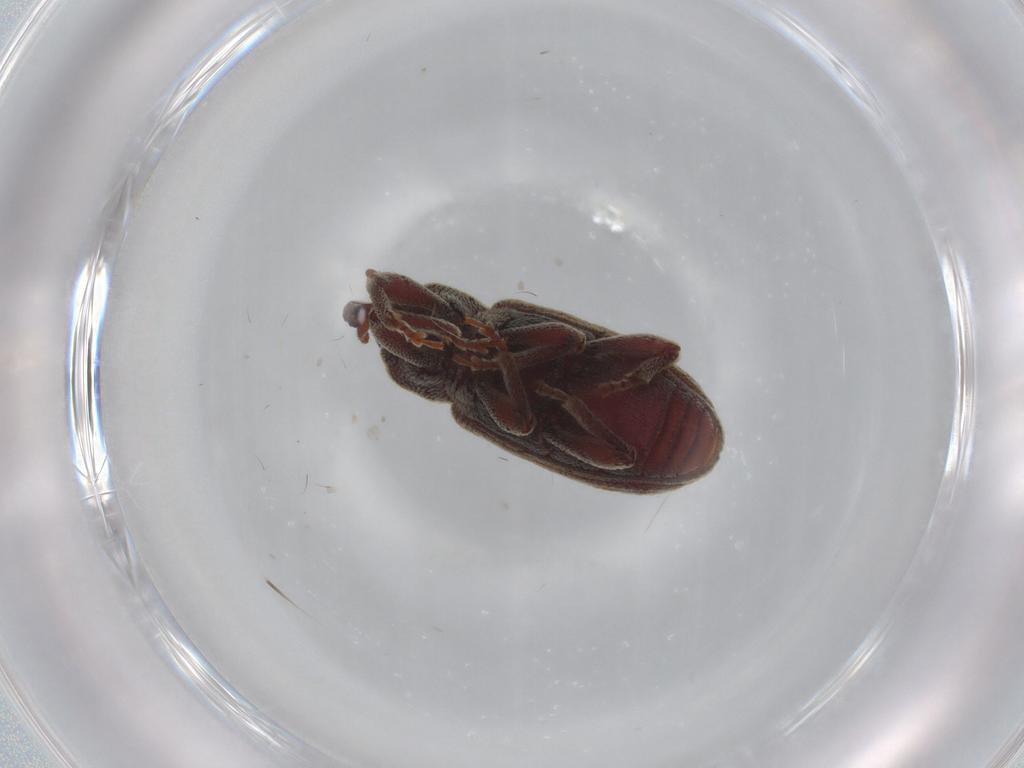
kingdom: Animalia
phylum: Arthropoda
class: Insecta
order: Coleoptera
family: Curculionidae
